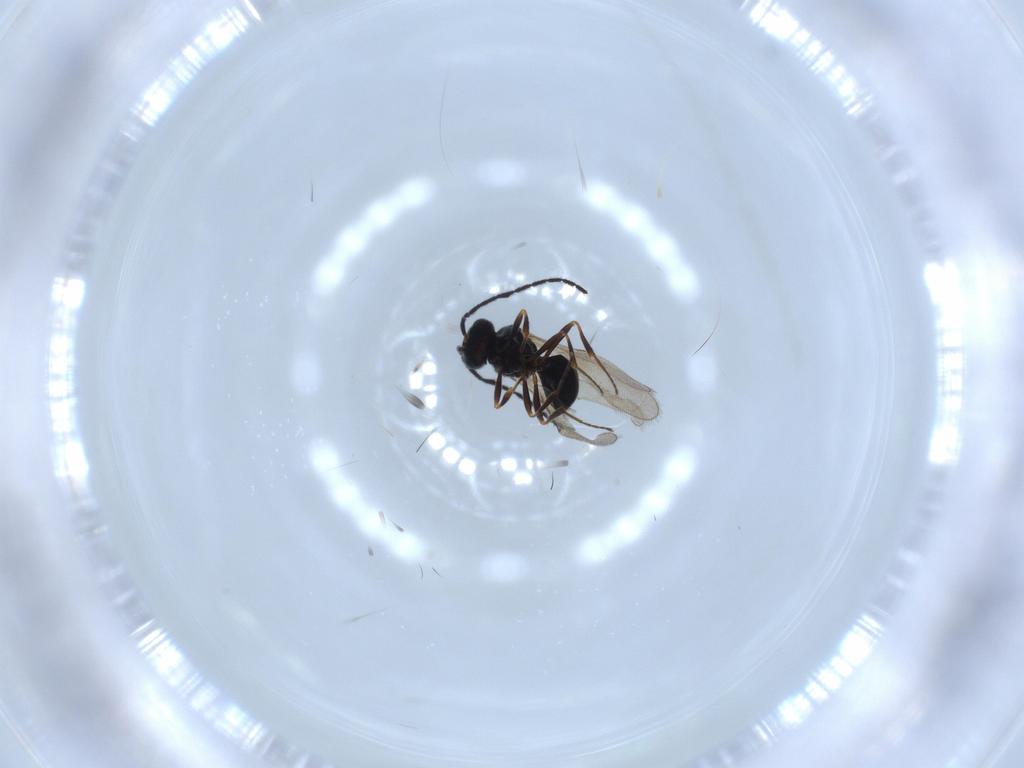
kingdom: Animalia
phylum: Arthropoda
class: Insecta
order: Hymenoptera
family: Scelionidae
